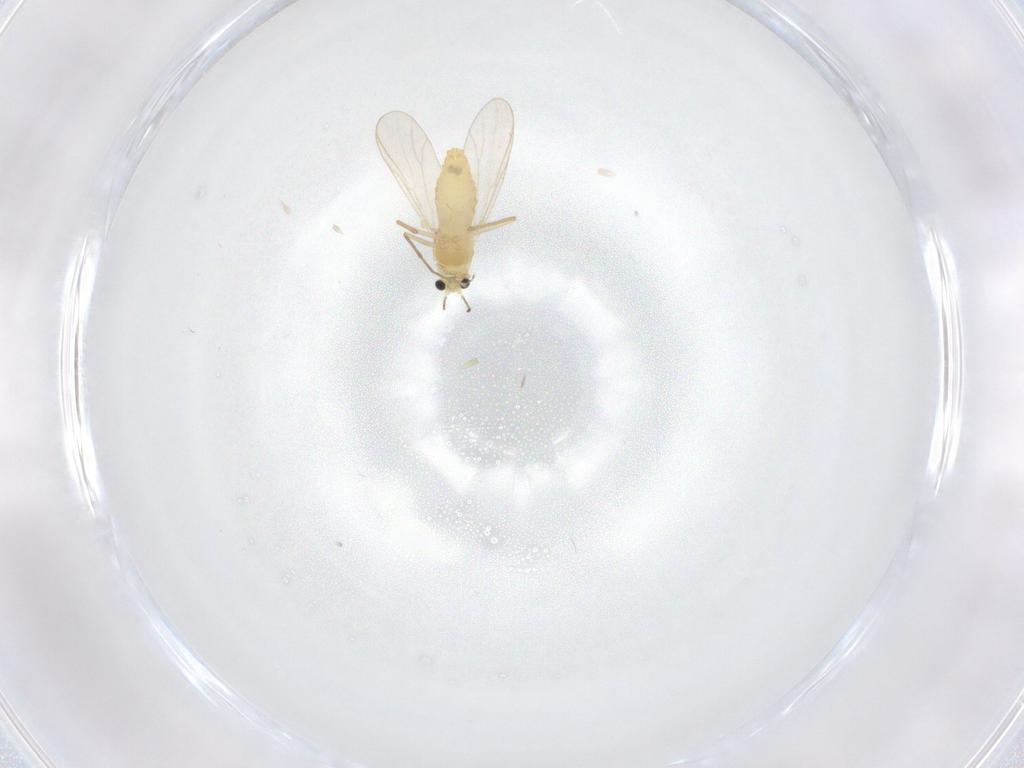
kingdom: Animalia
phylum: Arthropoda
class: Insecta
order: Diptera
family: Chironomidae
